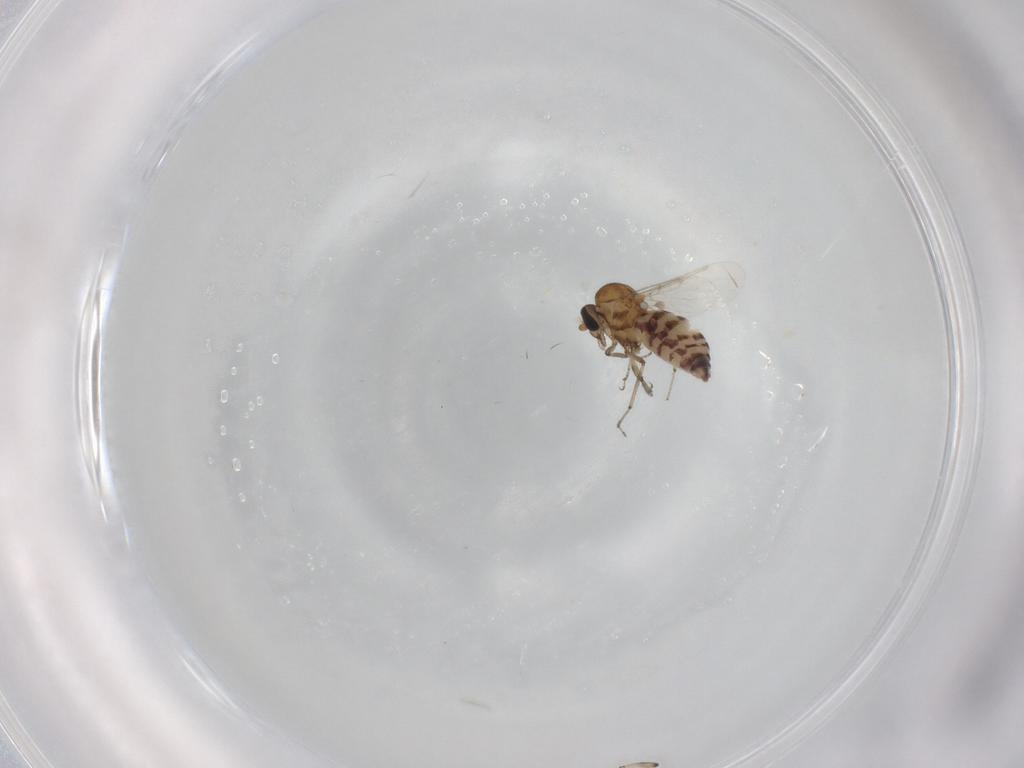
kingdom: Animalia
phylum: Arthropoda
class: Insecta
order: Diptera
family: Ceratopogonidae
